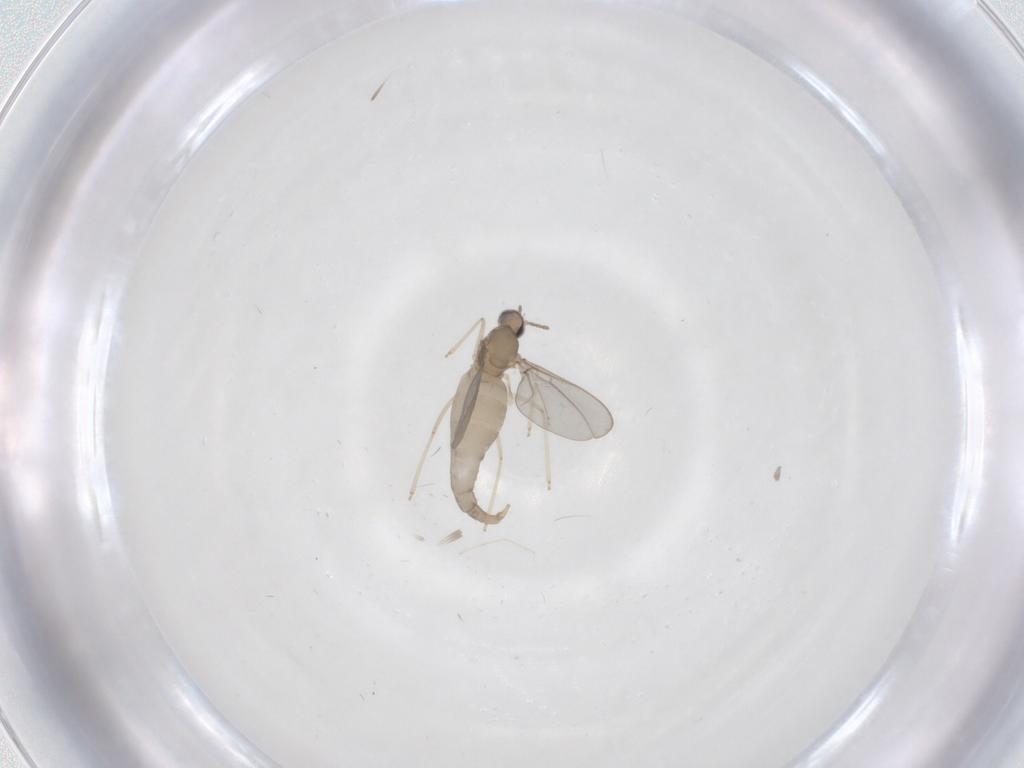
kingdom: Animalia
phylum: Arthropoda
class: Insecta
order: Diptera
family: Cecidomyiidae
